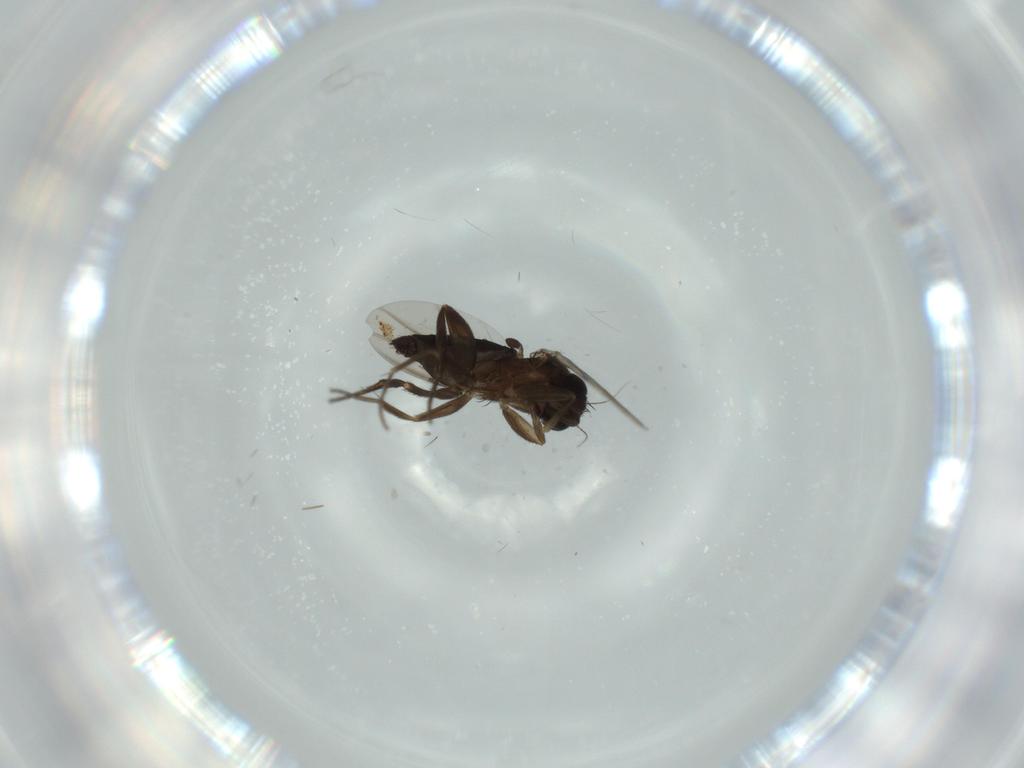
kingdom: Animalia
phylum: Arthropoda
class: Insecta
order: Diptera
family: Phoridae
